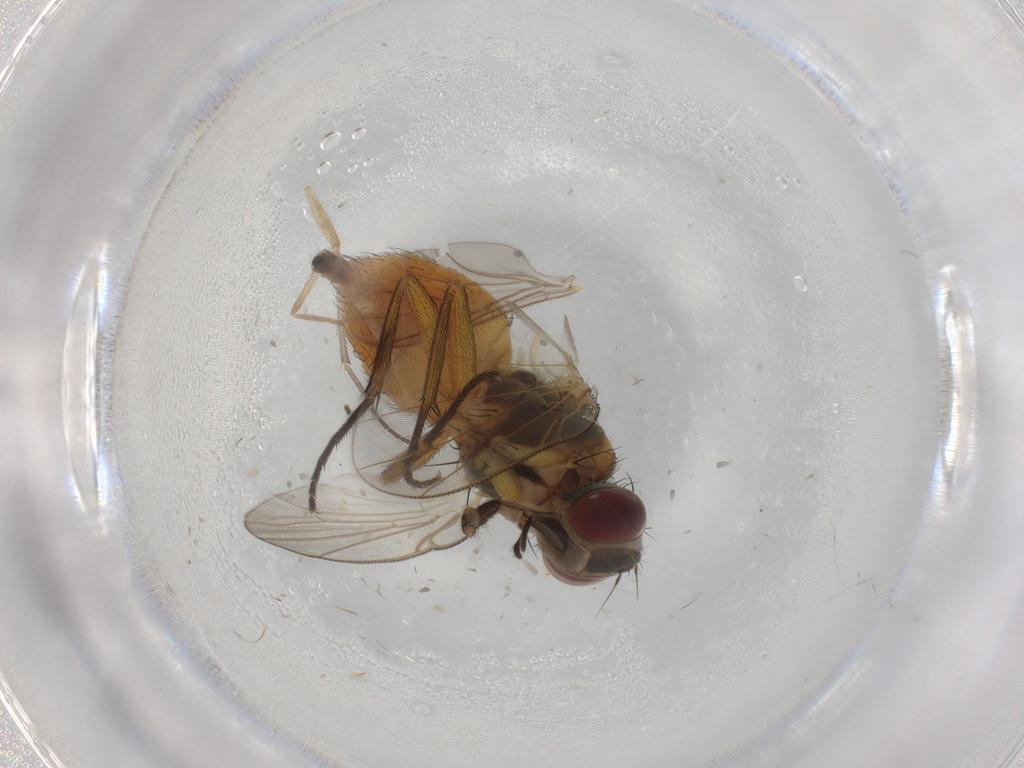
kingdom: Animalia
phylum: Arthropoda
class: Insecta
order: Diptera
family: Muscidae
